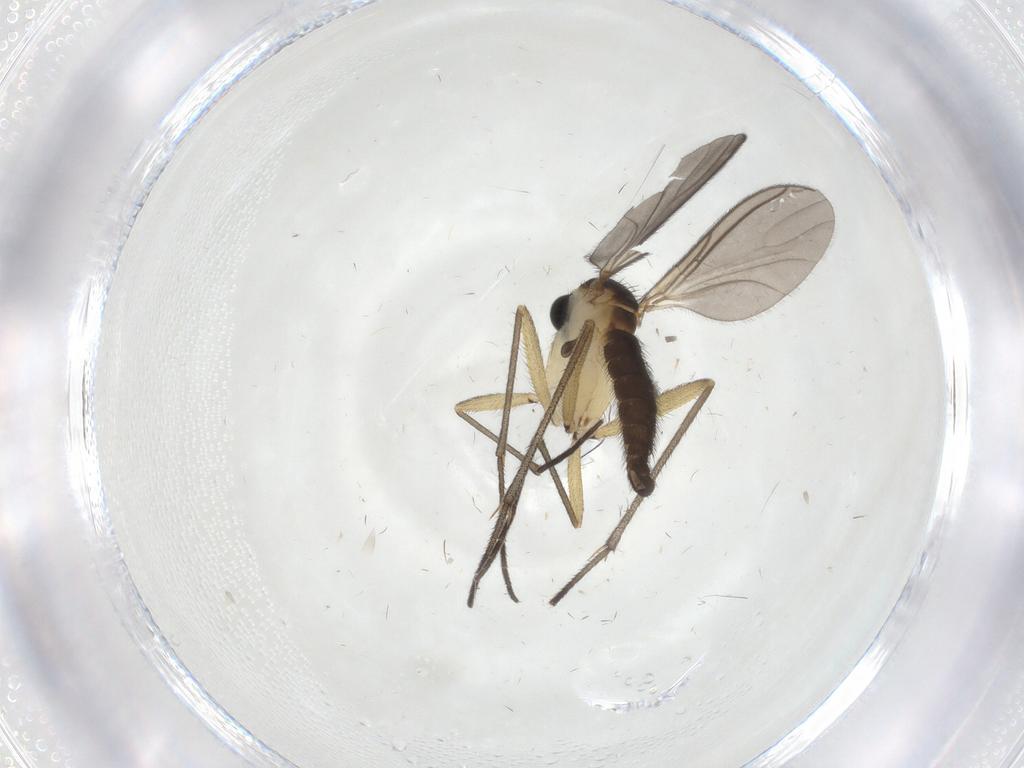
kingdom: Animalia
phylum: Arthropoda
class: Insecta
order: Diptera
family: Sciaridae
